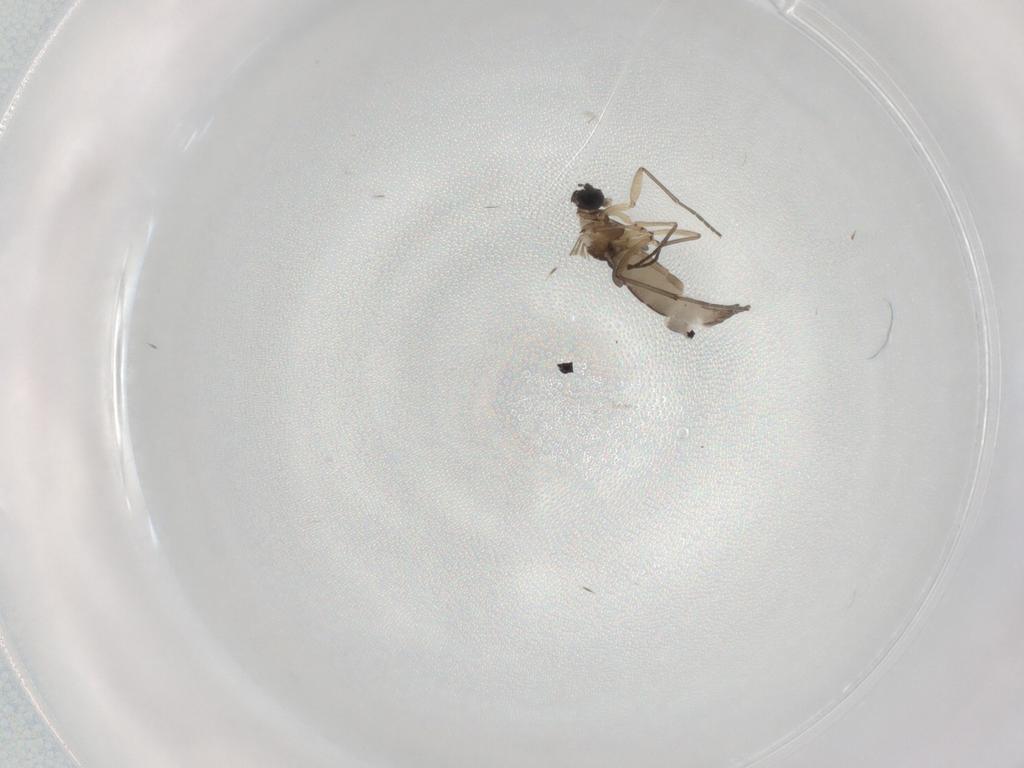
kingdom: Animalia
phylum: Arthropoda
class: Insecta
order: Diptera
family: Sciaridae
